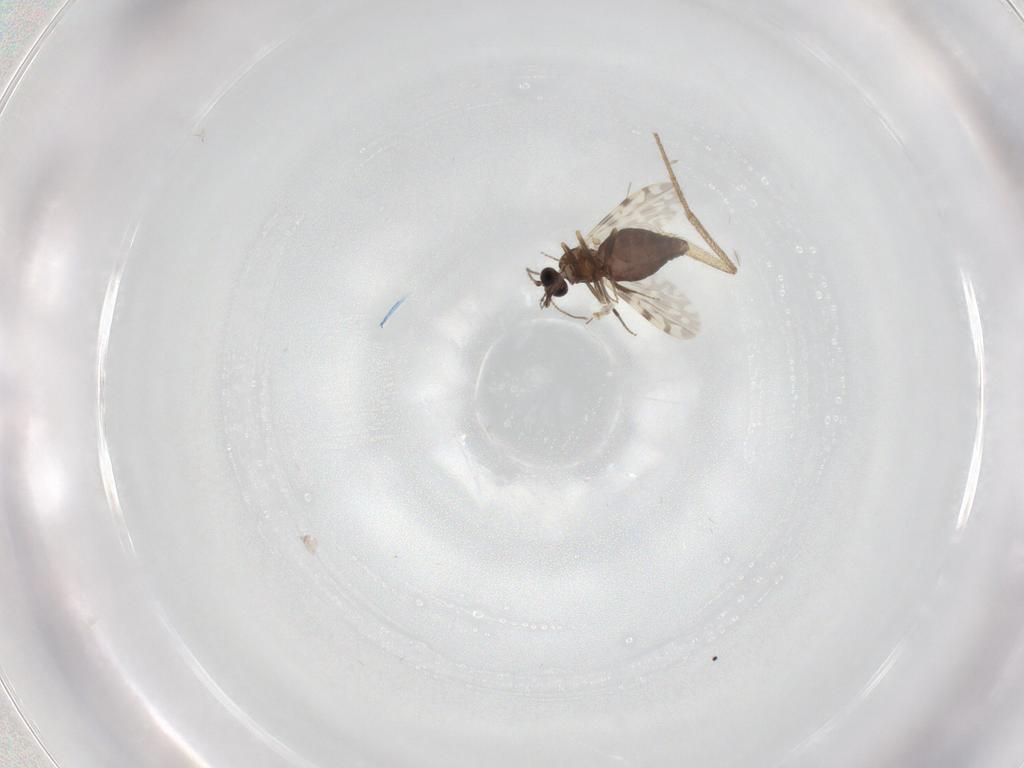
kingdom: Animalia
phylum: Arthropoda
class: Insecta
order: Diptera
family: Ceratopogonidae
